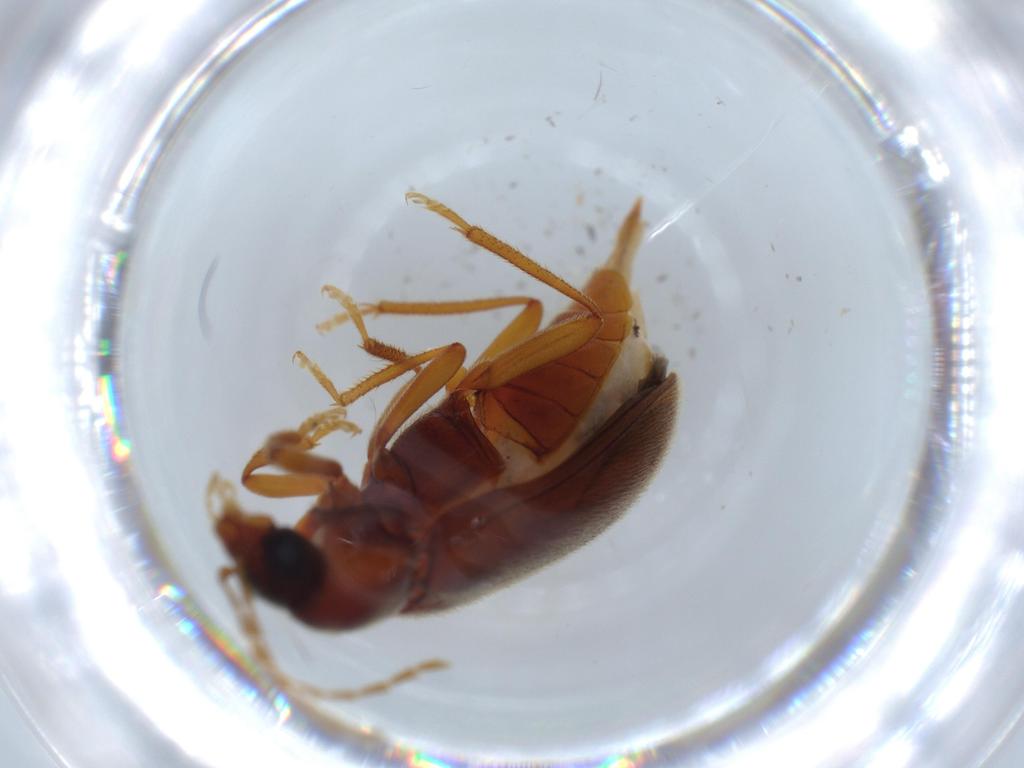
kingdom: Animalia
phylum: Arthropoda
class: Insecta
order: Coleoptera
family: Ptilodactylidae
